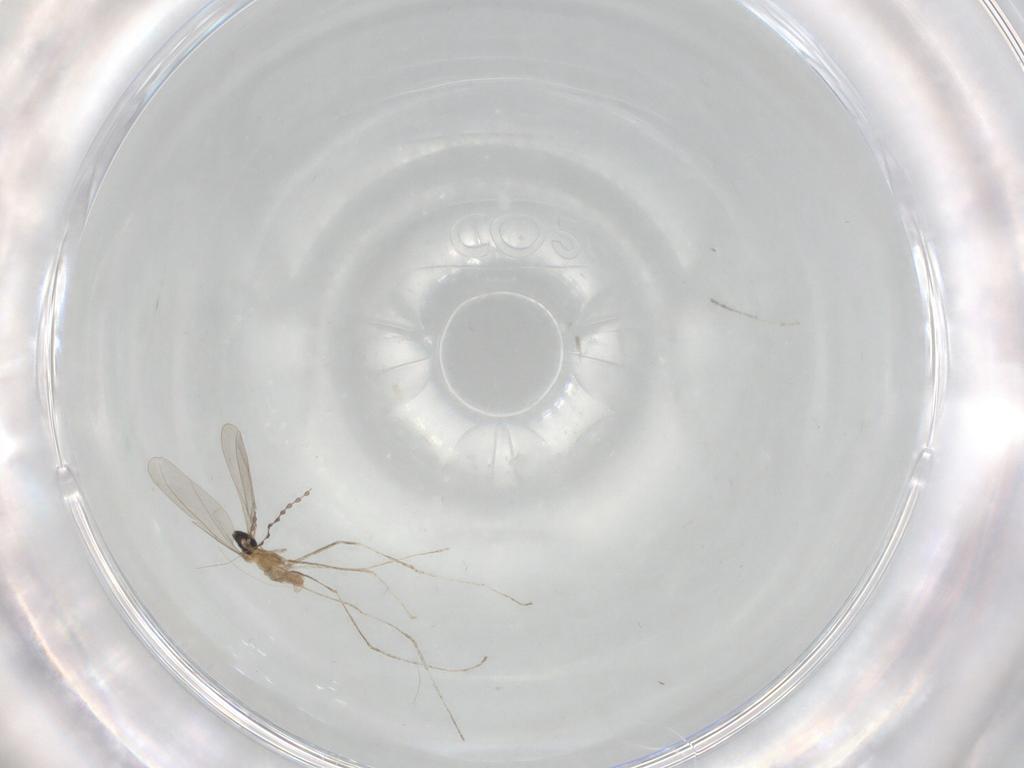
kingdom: Animalia
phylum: Arthropoda
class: Insecta
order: Diptera
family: Cecidomyiidae
